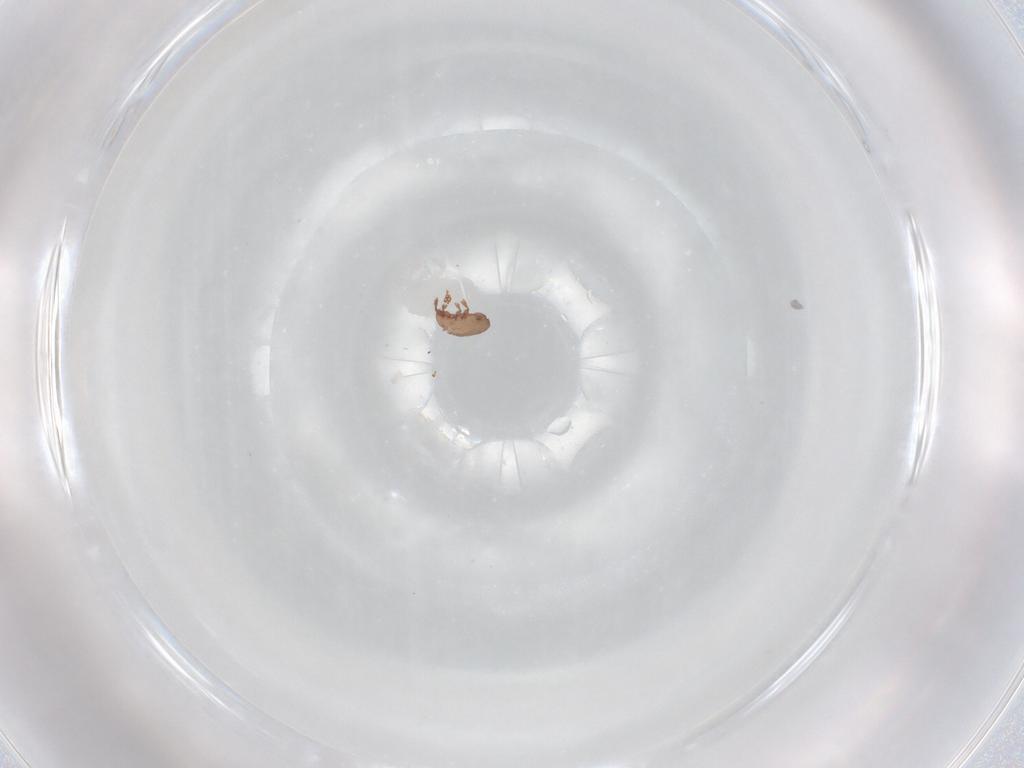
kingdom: Animalia
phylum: Arthropoda
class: Arachnida
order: Sarcoptiformes
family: Eremaeidae
